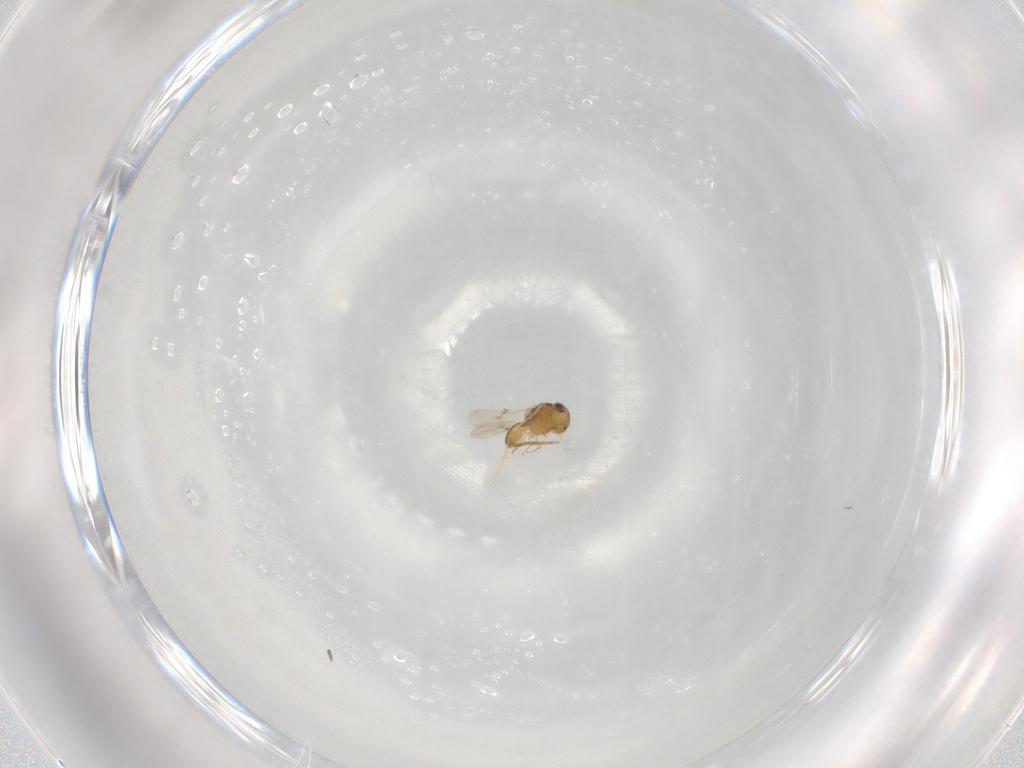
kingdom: Animalia
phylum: Arthropoda
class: Insecta
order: Hymenoptera
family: Scelionidae
